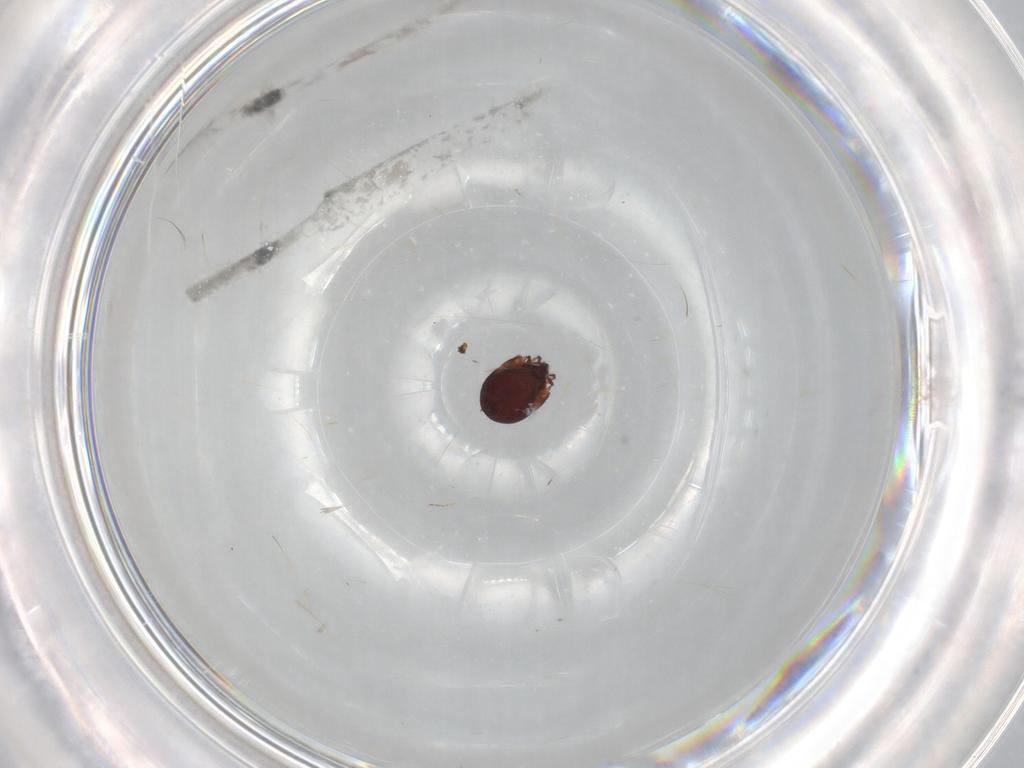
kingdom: Animalia
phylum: Arthropoda
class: Arachnida
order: Sarcoptiformes
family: Humerobatidae
